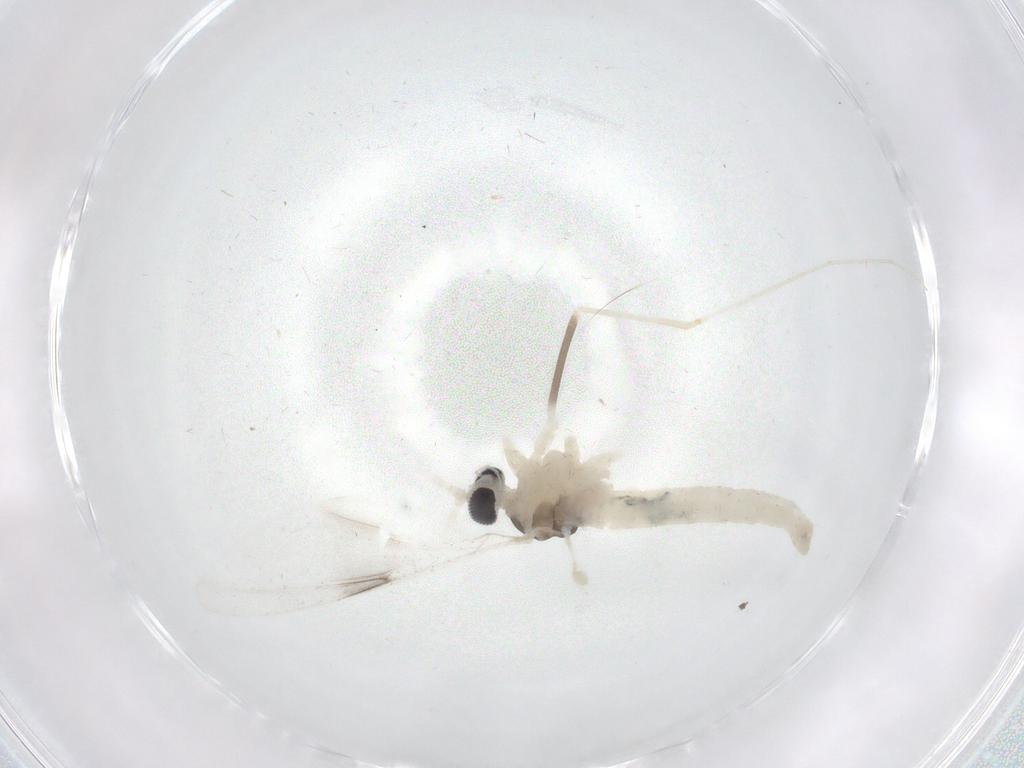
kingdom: Animalia
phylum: Arthropoda
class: Insecta
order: Diptera
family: Cecidomyiidae
